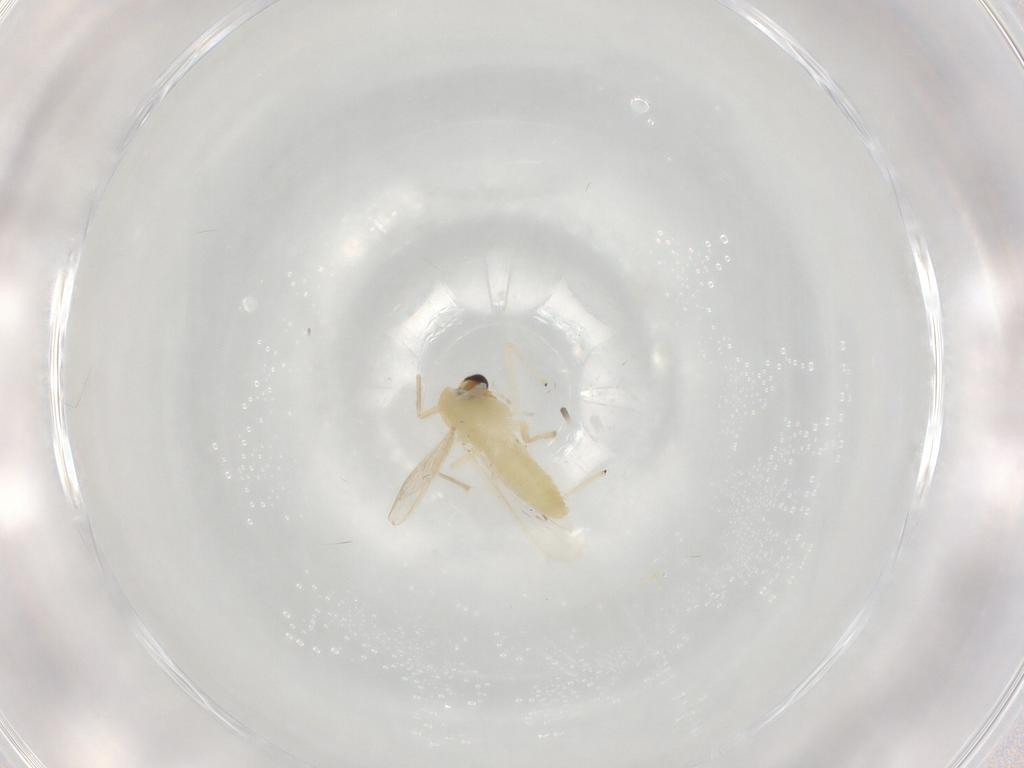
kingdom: Animalia
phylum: Arthropoda
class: Insecta
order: Diptera
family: Chironomidae
